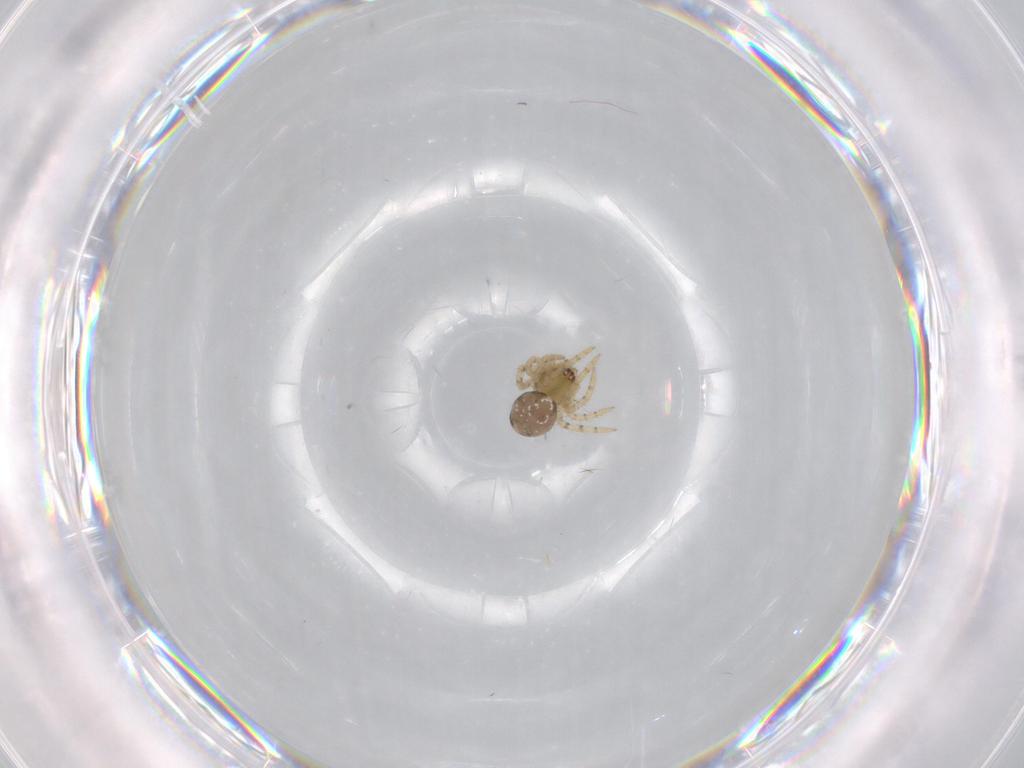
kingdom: Animalia
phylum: Arthropoda
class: Arachnida
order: Araneae
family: Theridiidae
